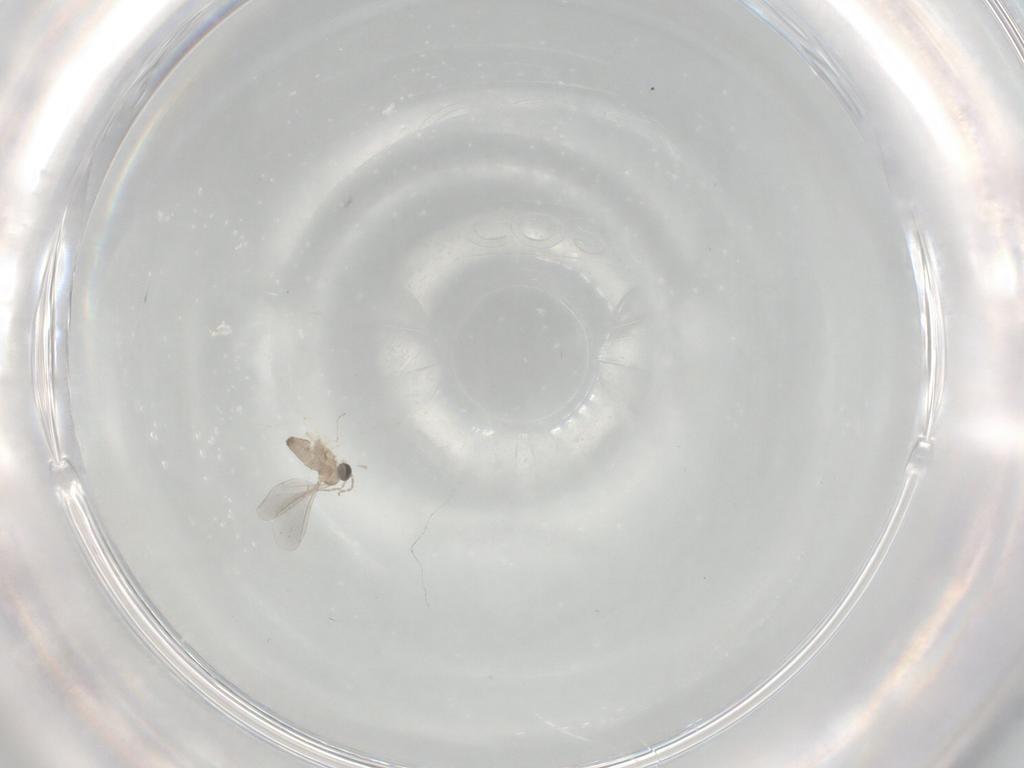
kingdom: Animalia
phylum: Arthropoda
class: Insecta
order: Diptera
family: Cecidomyiidae
